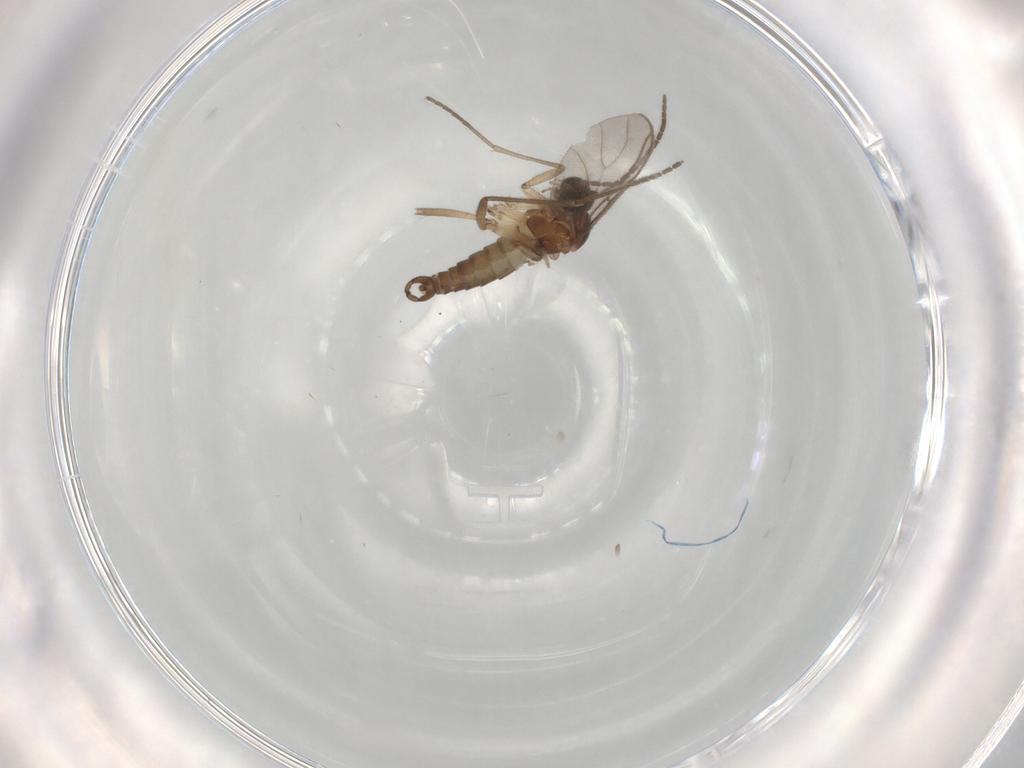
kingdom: Animalia
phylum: Arthropoda
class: Insecta
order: Diptera
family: Sciaridae
